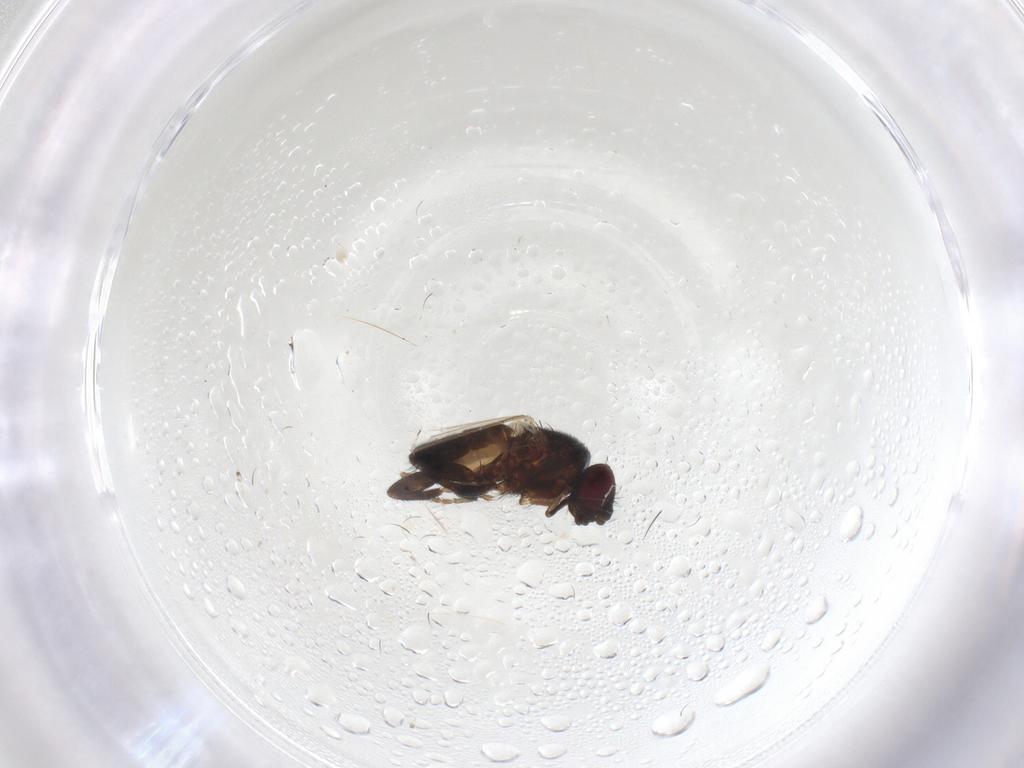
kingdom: Animalia
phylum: Arthropoda
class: Insecta
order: Diptera
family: Milichiidae
